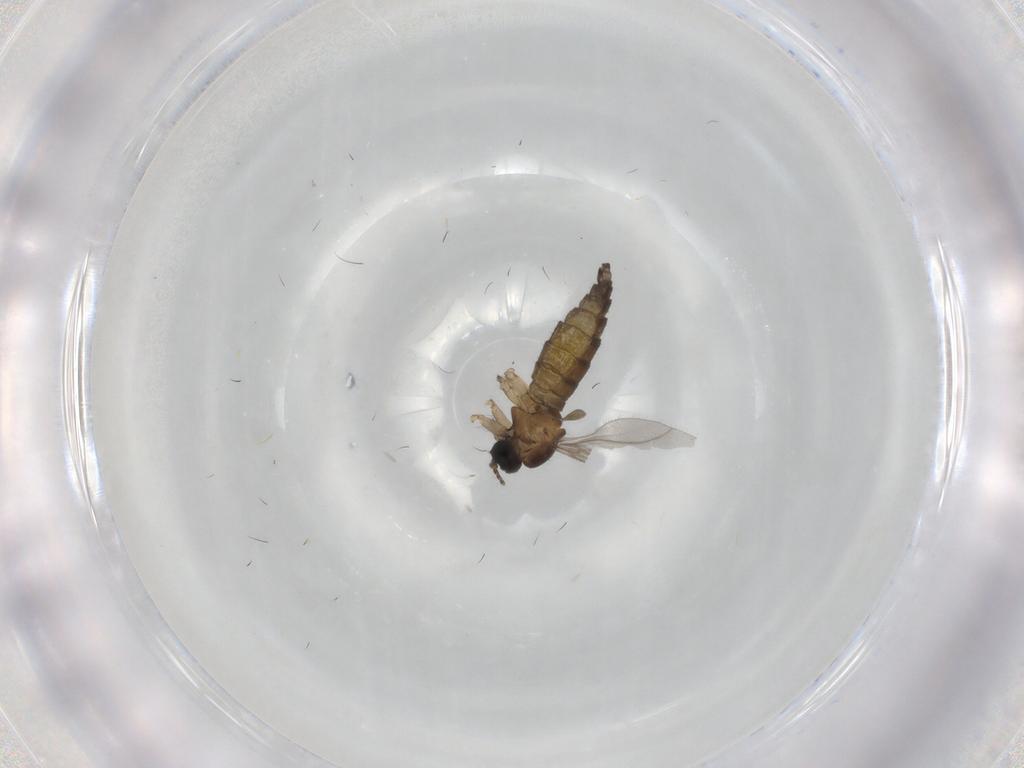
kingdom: Animalia
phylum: Arthropoda
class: Insecta
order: Diptera
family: Sciaridae
